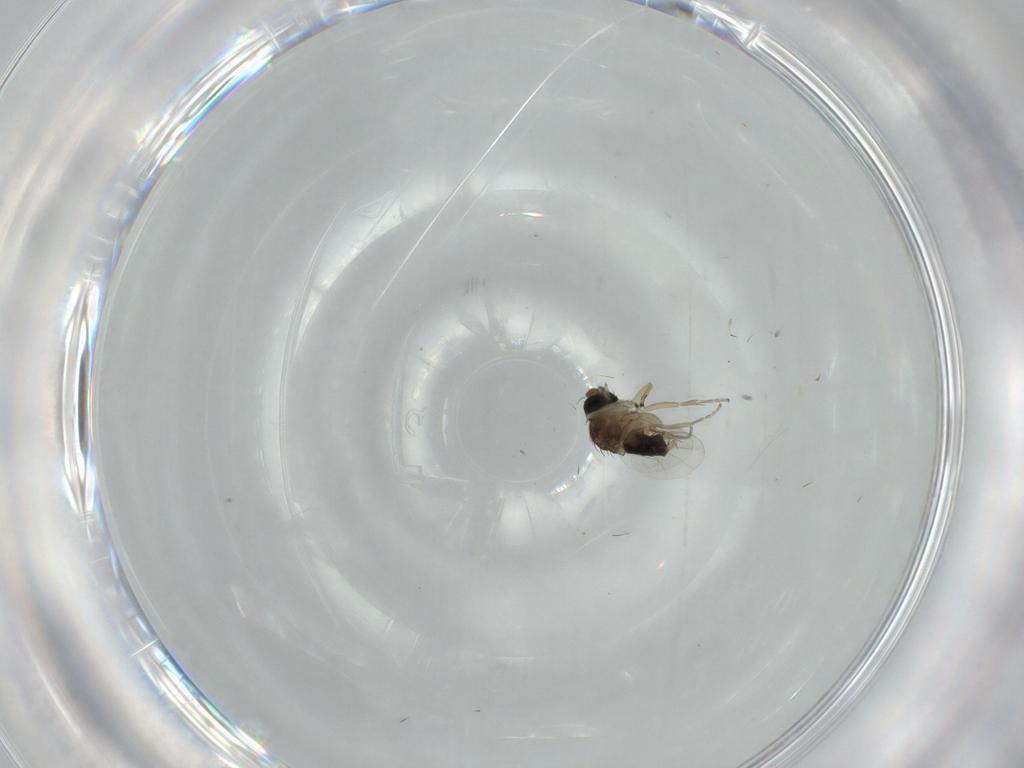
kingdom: Animalia
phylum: Arthropoda
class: Insecta
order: Diptera
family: Phoridae
